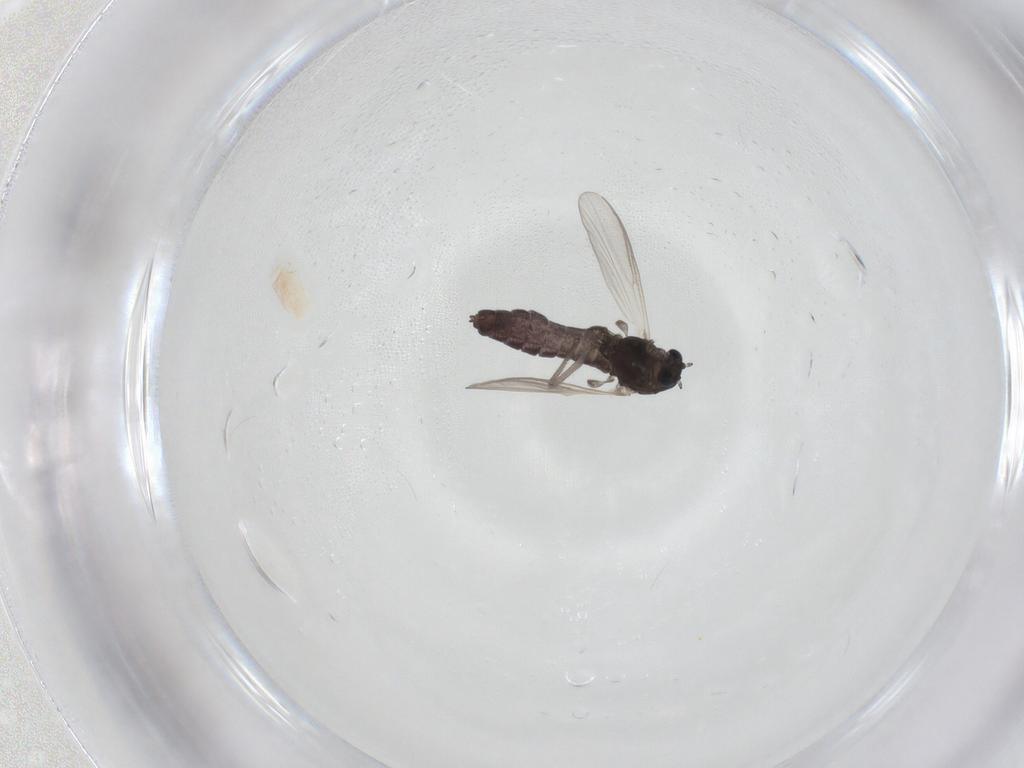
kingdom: Animalia
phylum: Arthropoda
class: Insecta
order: Diptera
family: Chironomidae
